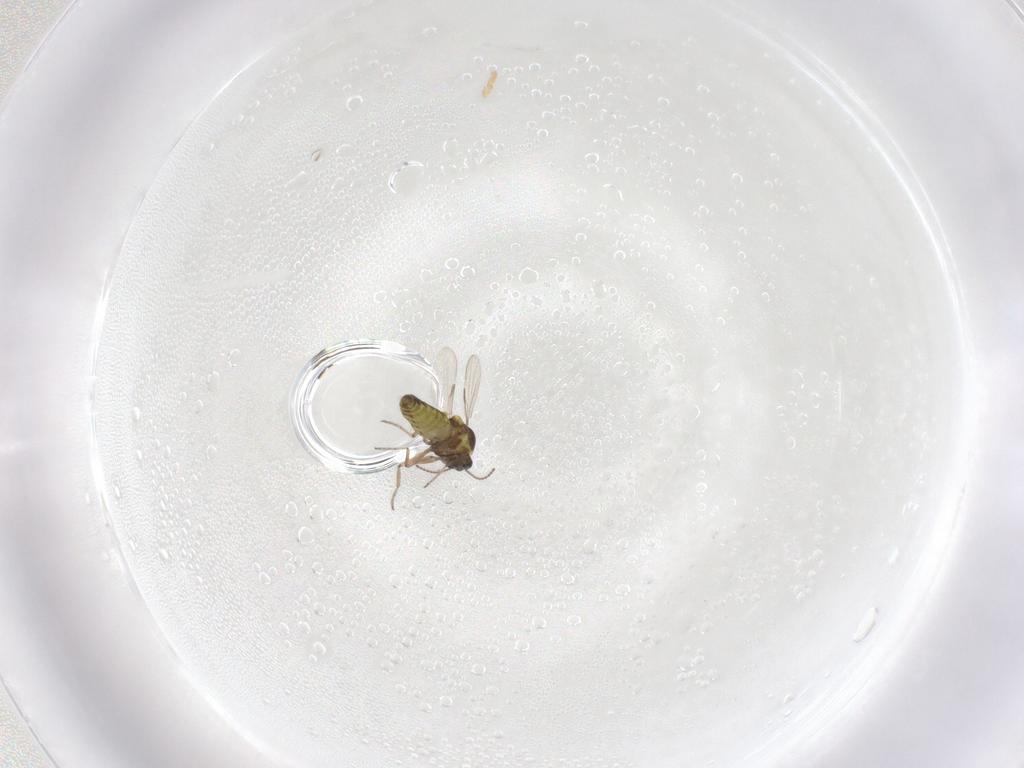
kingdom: Animalia
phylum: Arthropoda
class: Insecta
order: Diptera
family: Ceratopogonidae
